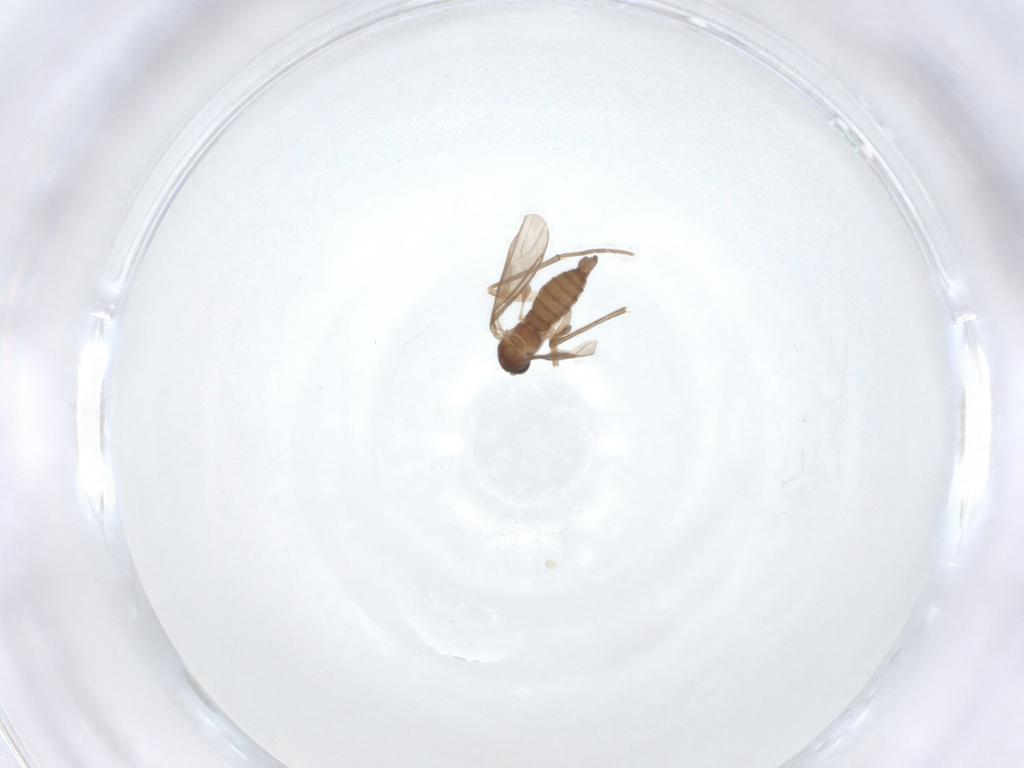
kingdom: Animalia
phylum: Arthropoda
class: Insecta
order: Diptera
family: Sciaridae
